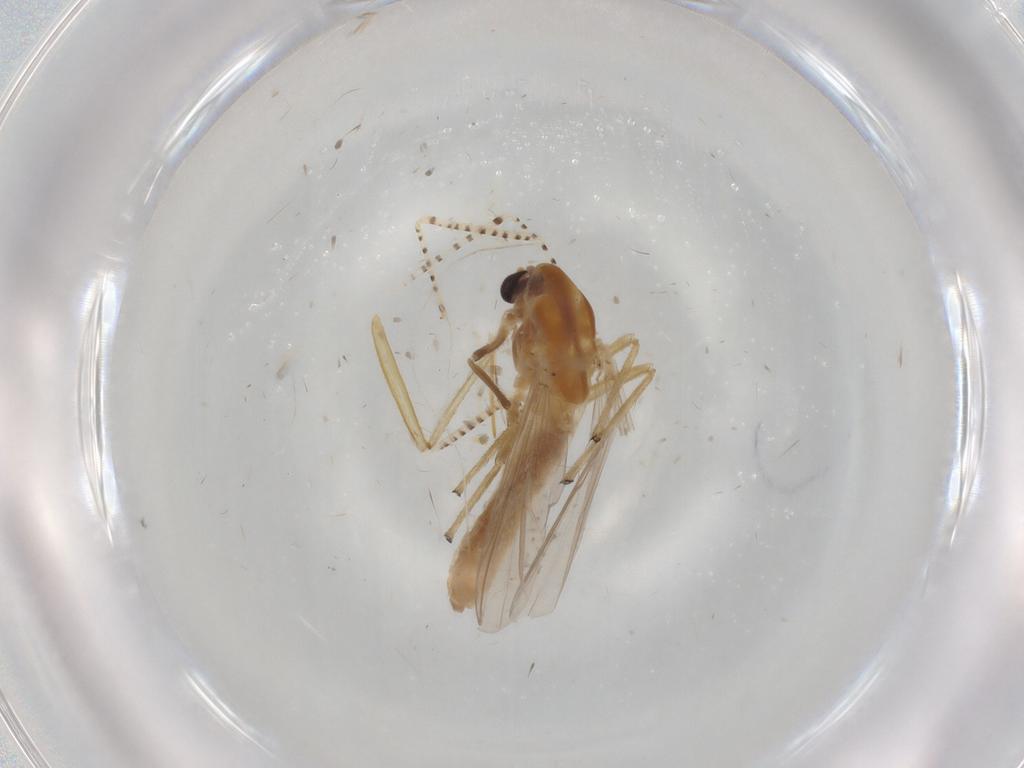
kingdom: Animalia
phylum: Arthropoda
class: Insecta
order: Diptera
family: Syrphidae
